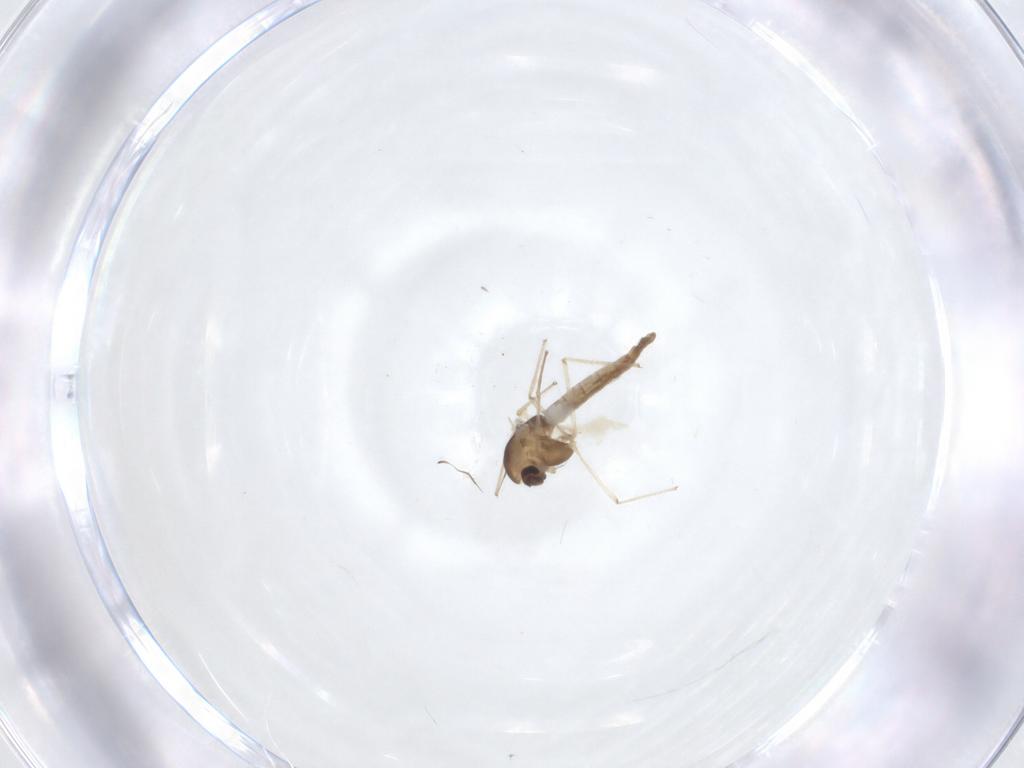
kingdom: Animalia
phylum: Arthropoda
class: Insecta
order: Diptera
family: Chironomidae
